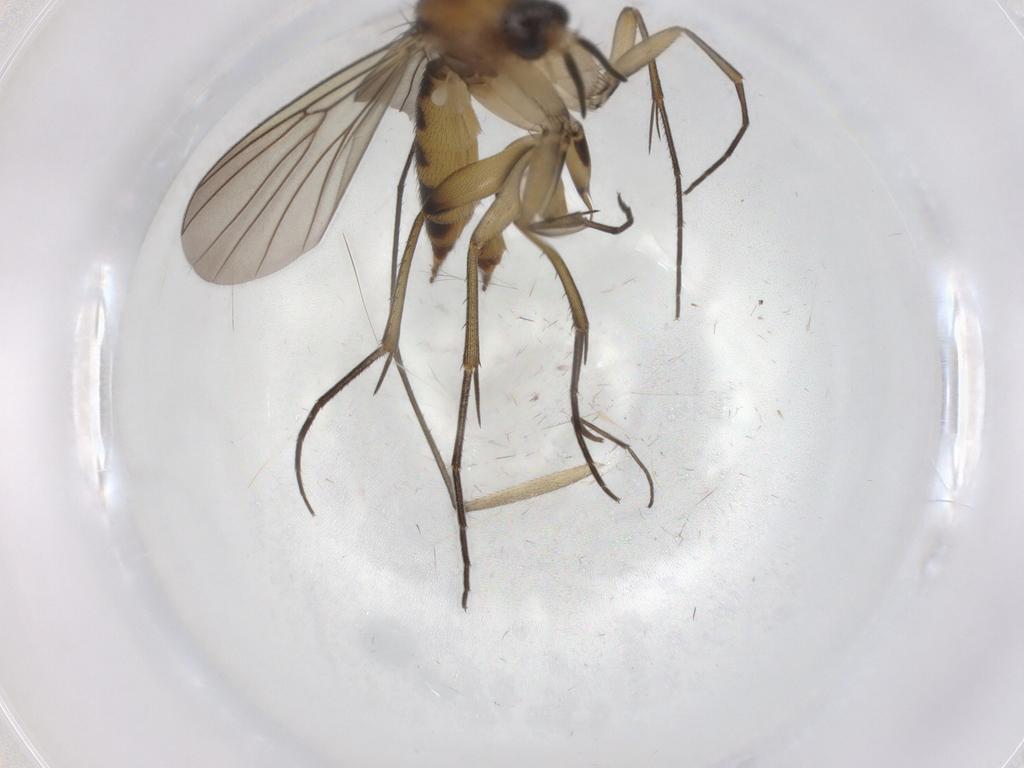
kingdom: Animalia
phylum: Arthropoda
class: Insecta
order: Diptera
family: Mycetophilidae
